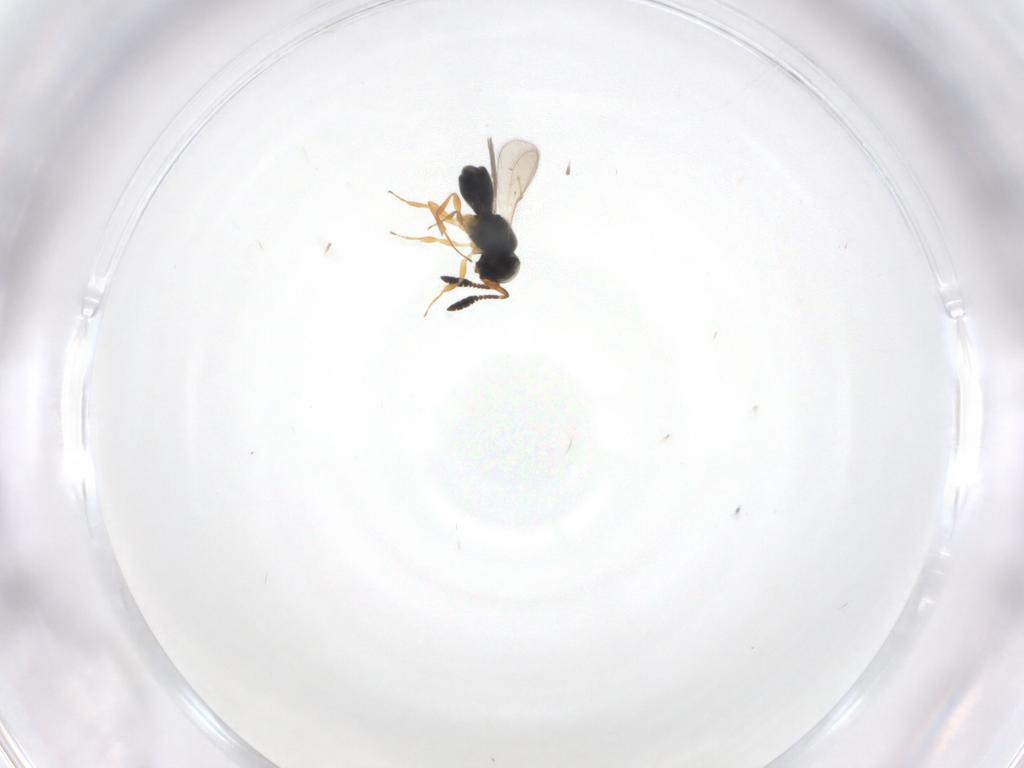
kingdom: Animalia
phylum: Arthropoda
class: Insecta
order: Hymenoptera
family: Scelionidae
